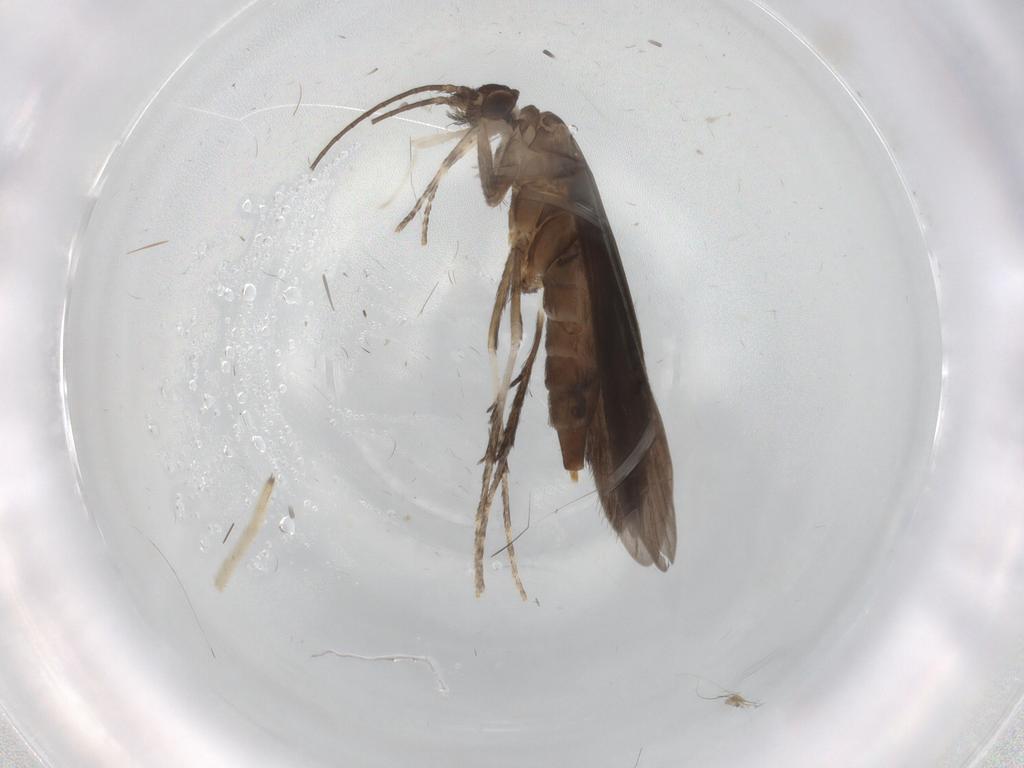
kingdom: Animalia
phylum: Arthropoda
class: Insecta
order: Trichoptera
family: Xiphocentronidae
